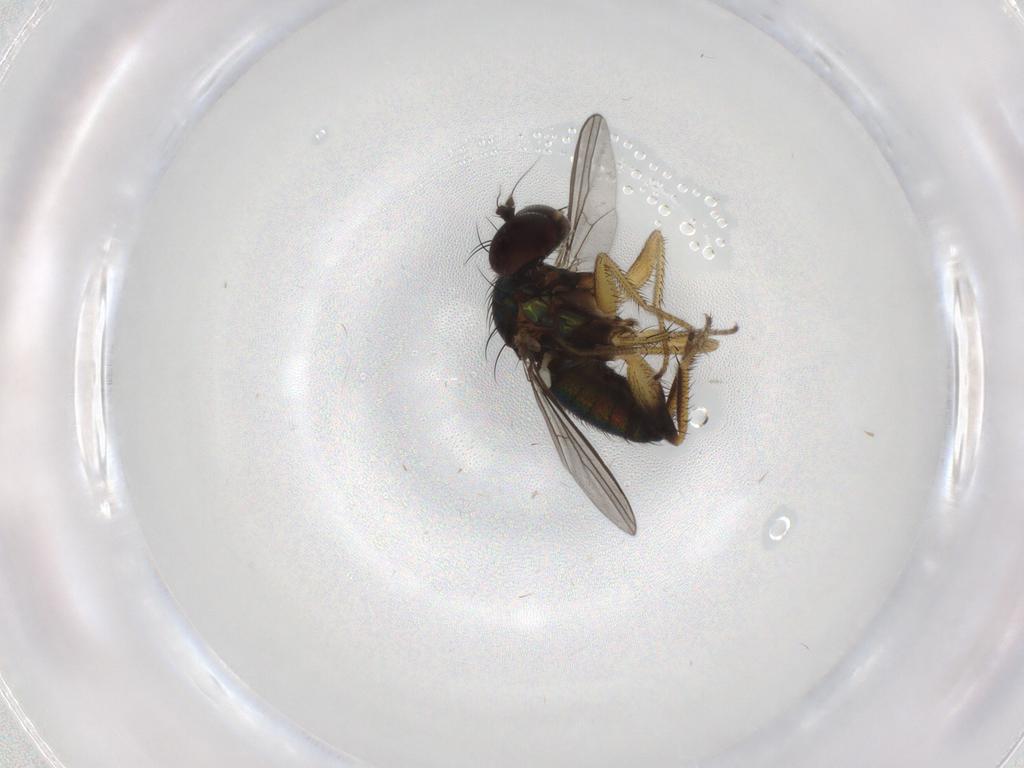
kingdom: Animalia
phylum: Arthropoda
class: Insecta
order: Diptera
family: Dolichopodidae
